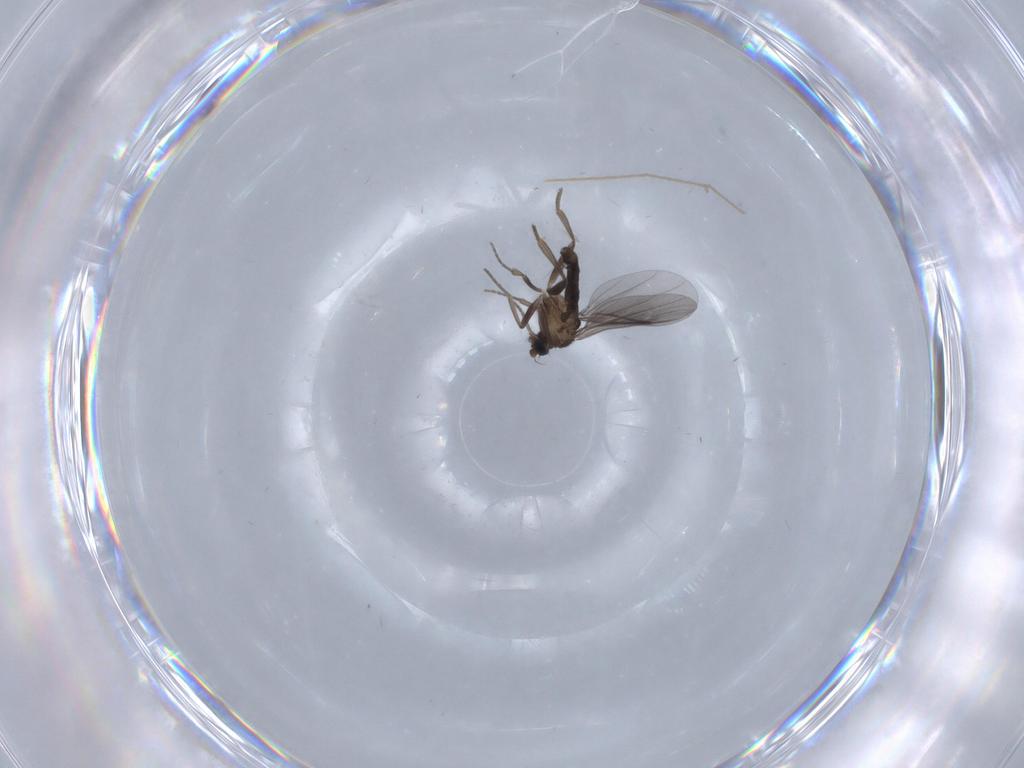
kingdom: Animalia
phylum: Arthropoda
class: Insecta
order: Diptera
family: Phoridae
